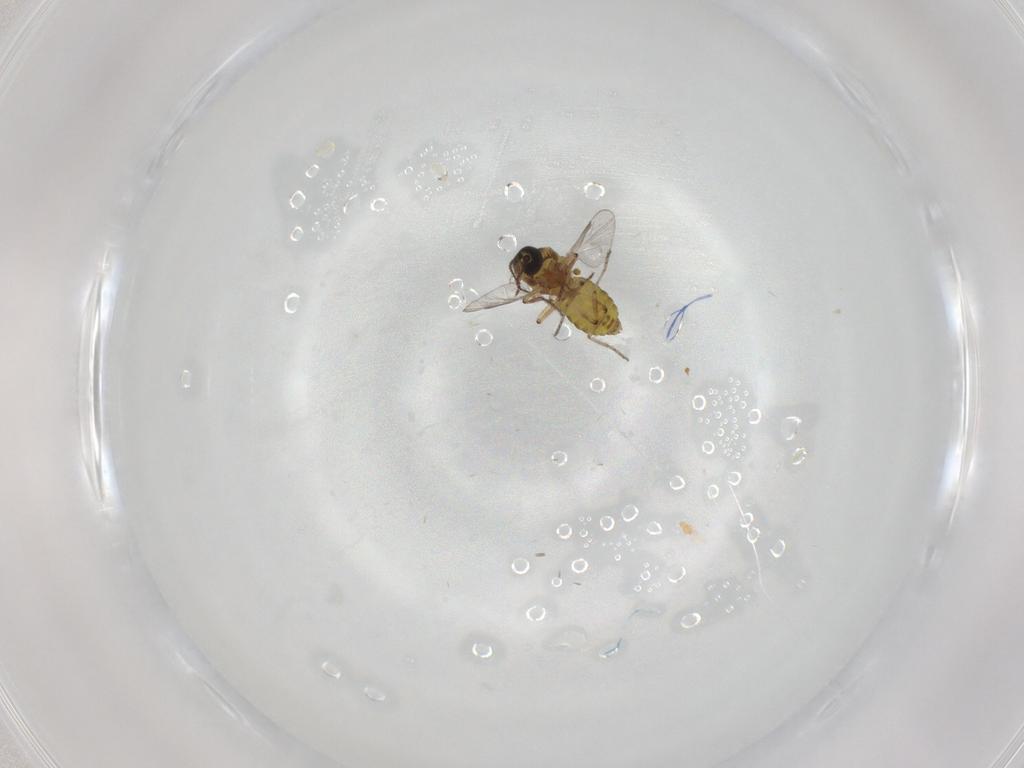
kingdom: Animalia
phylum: Arthropoda
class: Insecta
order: Diptera
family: Ceratopogonidae
